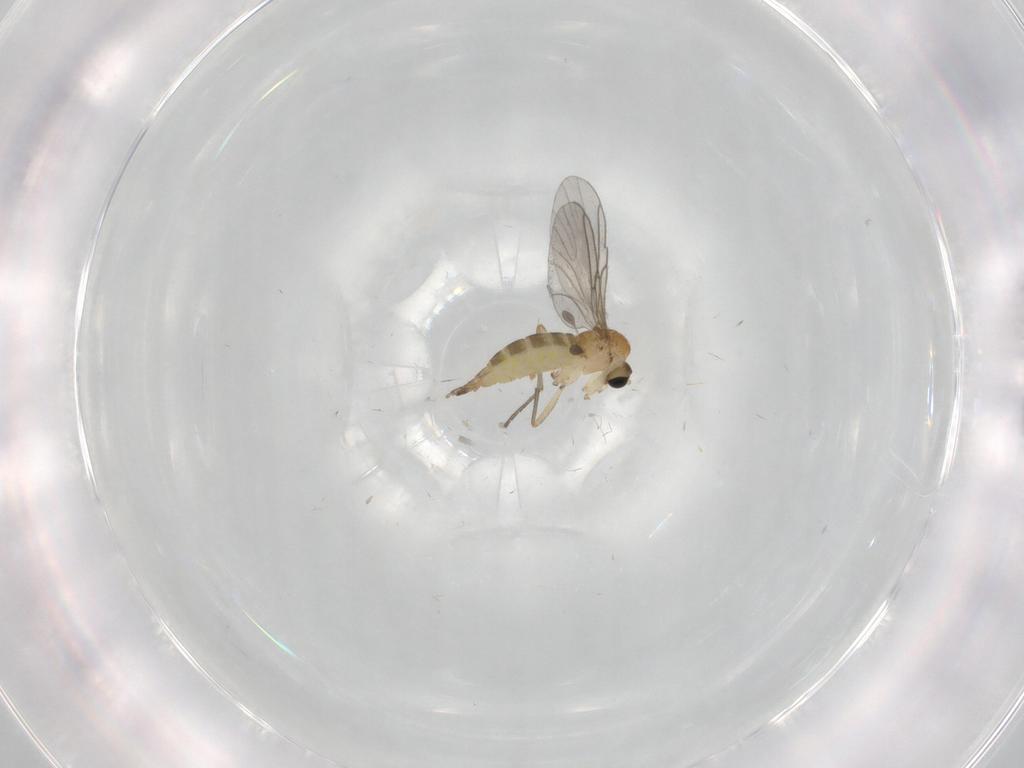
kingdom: Animalia
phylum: Arthropoda
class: Insecta
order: Diptera
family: Sciaridae
